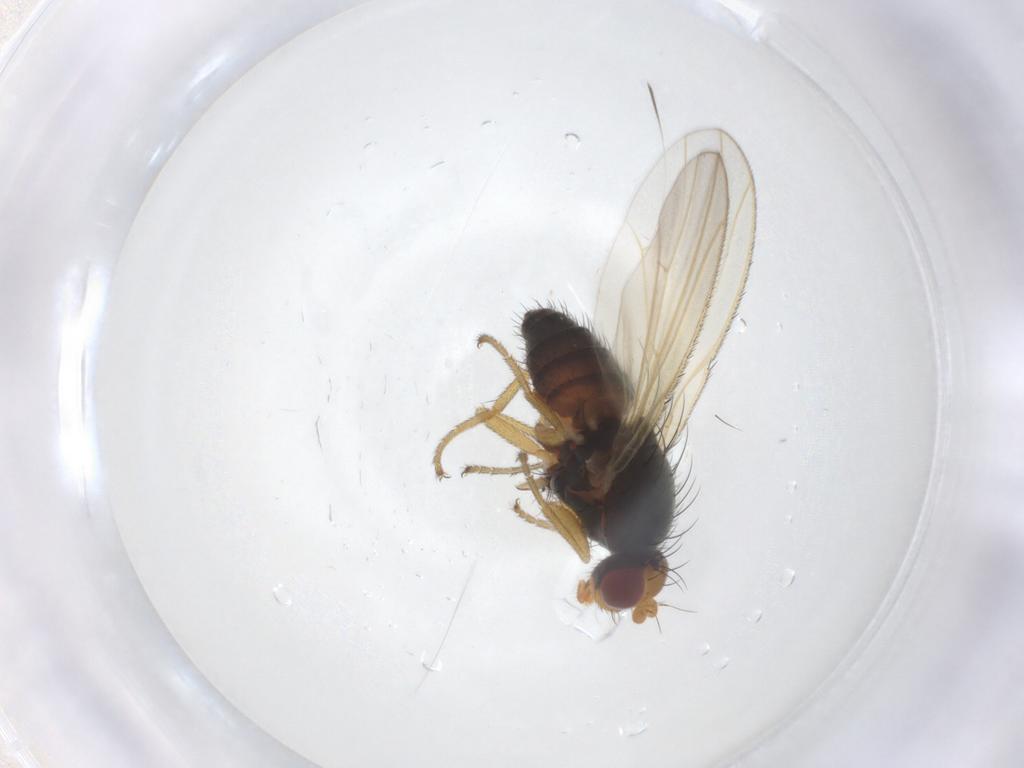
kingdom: Animalia
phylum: Arthropoda
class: Insecta
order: Diptera
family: Heleomyzidae
